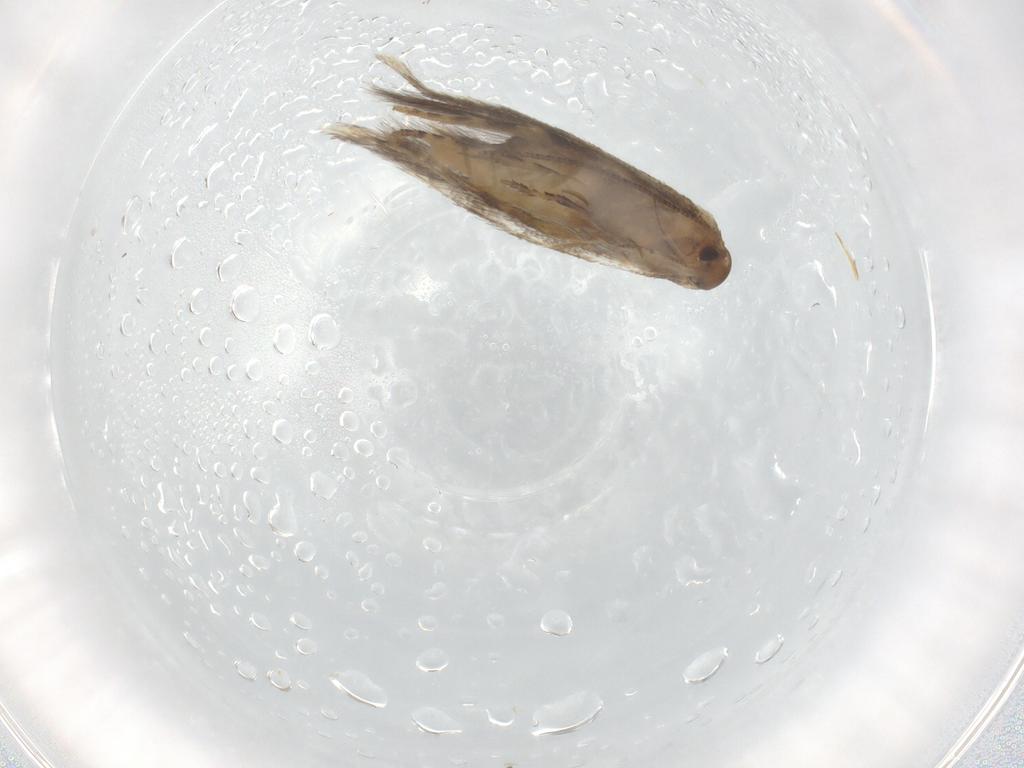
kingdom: Animalia
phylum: Arthropoda
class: Insecta
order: Lepidoptera
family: Elachistidae
